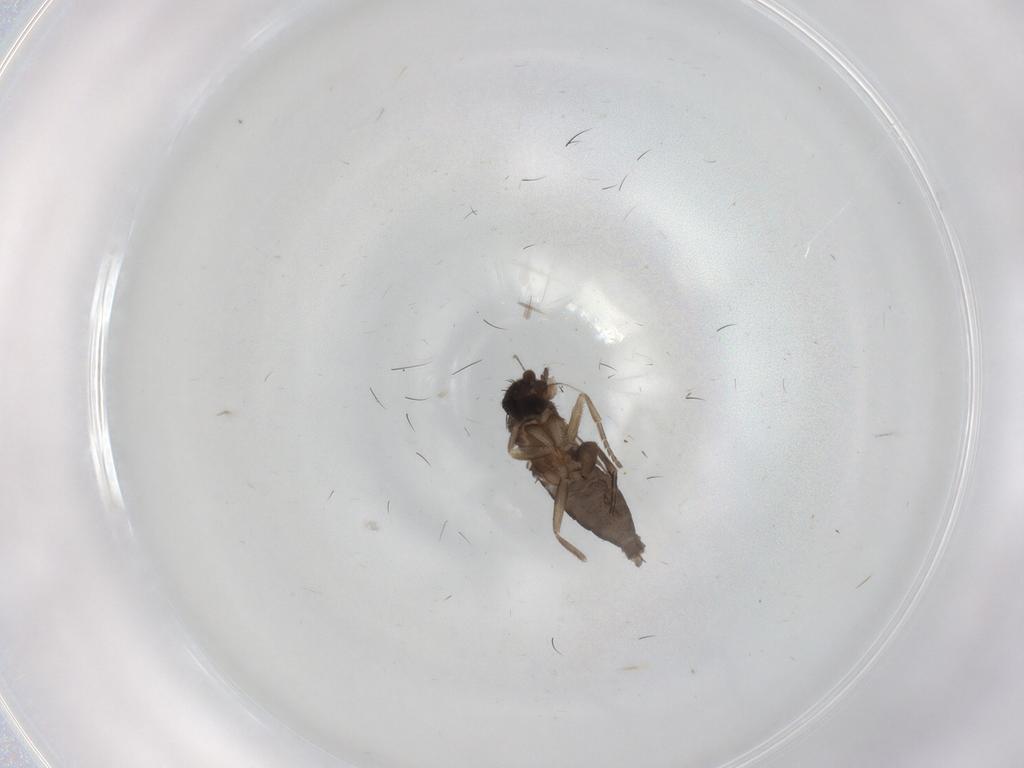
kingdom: Animalia
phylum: Arthropoda
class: Insecta
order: Diptera
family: Phoridae
